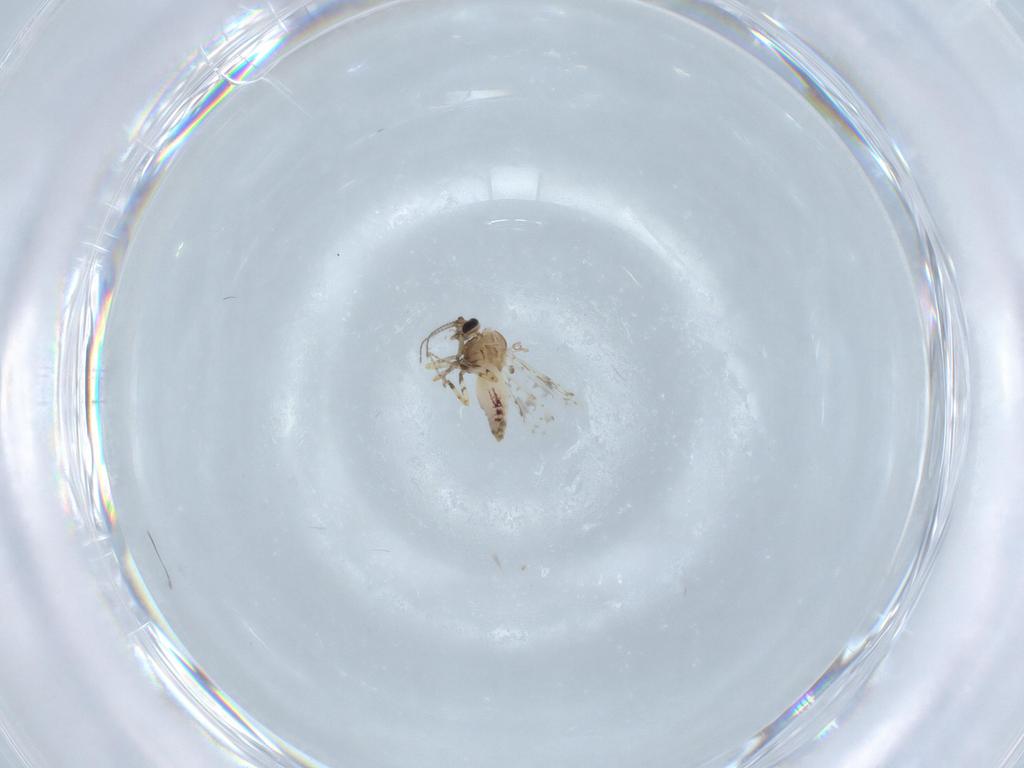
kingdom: Animalia
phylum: Arthropoda
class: Insecta
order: Diptera
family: Ceratopogonidae
